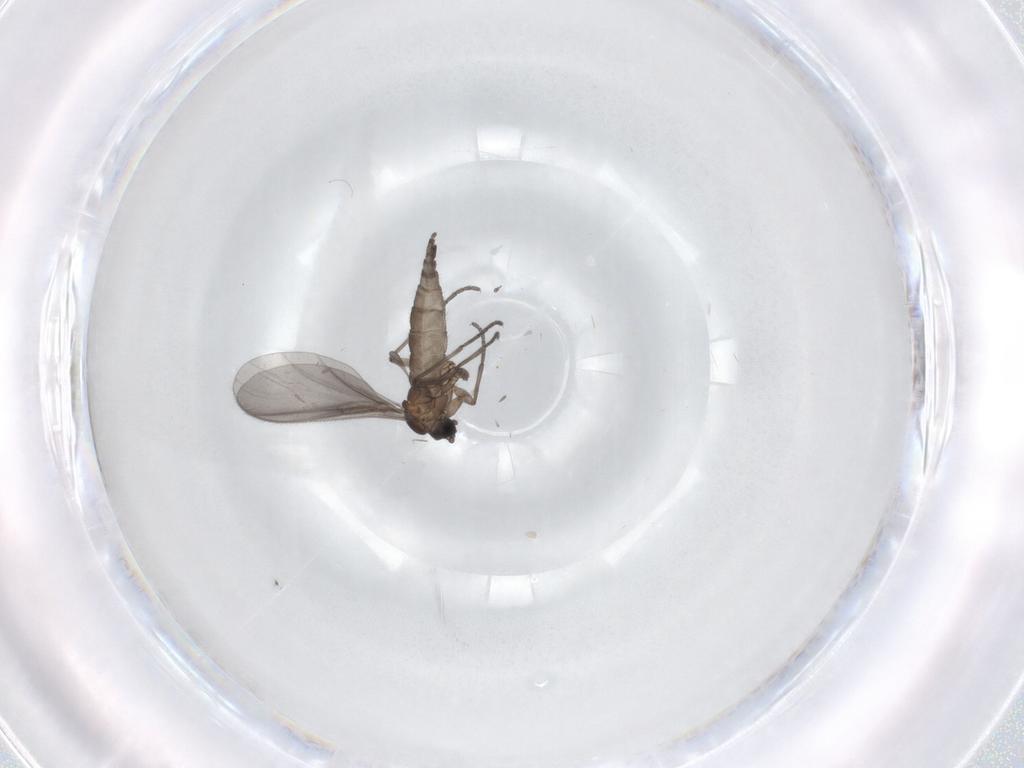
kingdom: Animalia
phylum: Arthropoda
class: Insecta
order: Diptera
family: Sciaridae
